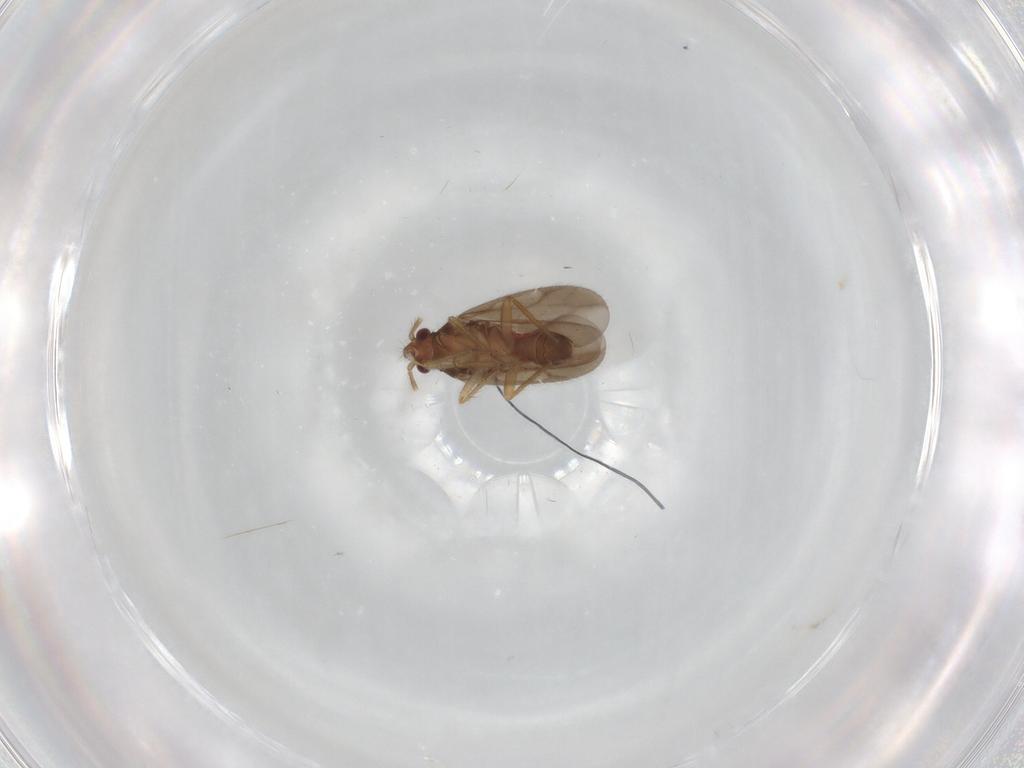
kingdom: Animalia
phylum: Arthropoda
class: Insecta
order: Hemiptera
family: Ceratocombidae
